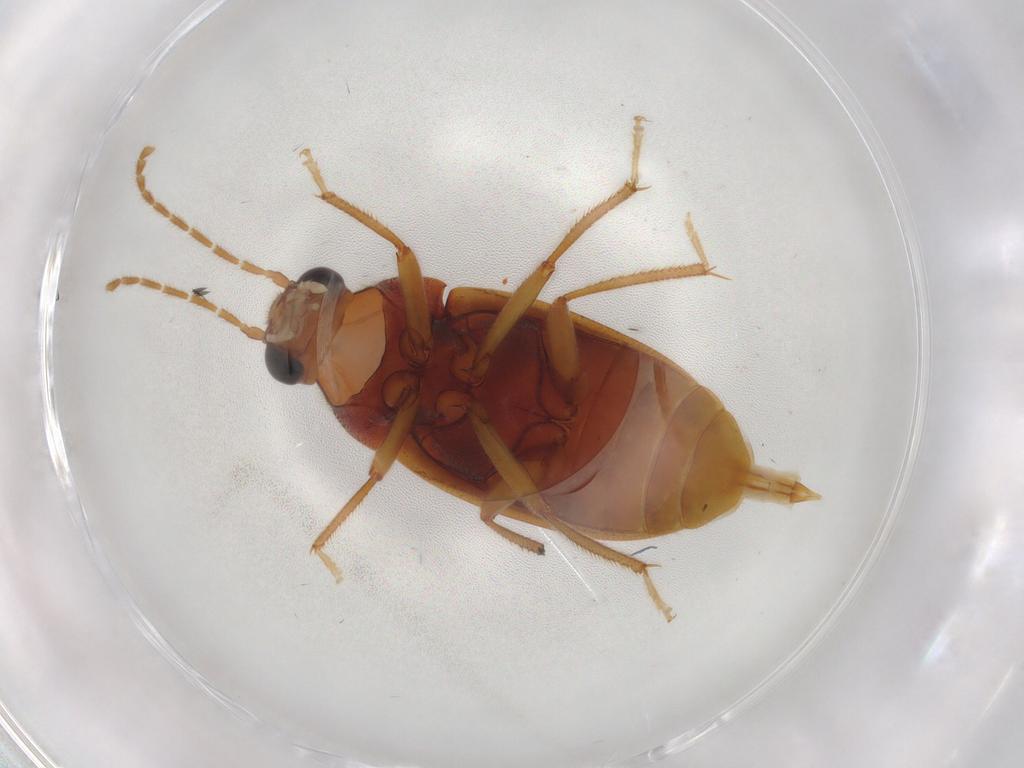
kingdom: Animalia
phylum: Arthropoda
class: Insecta
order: Coleoptera
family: Ptilodactylidae
